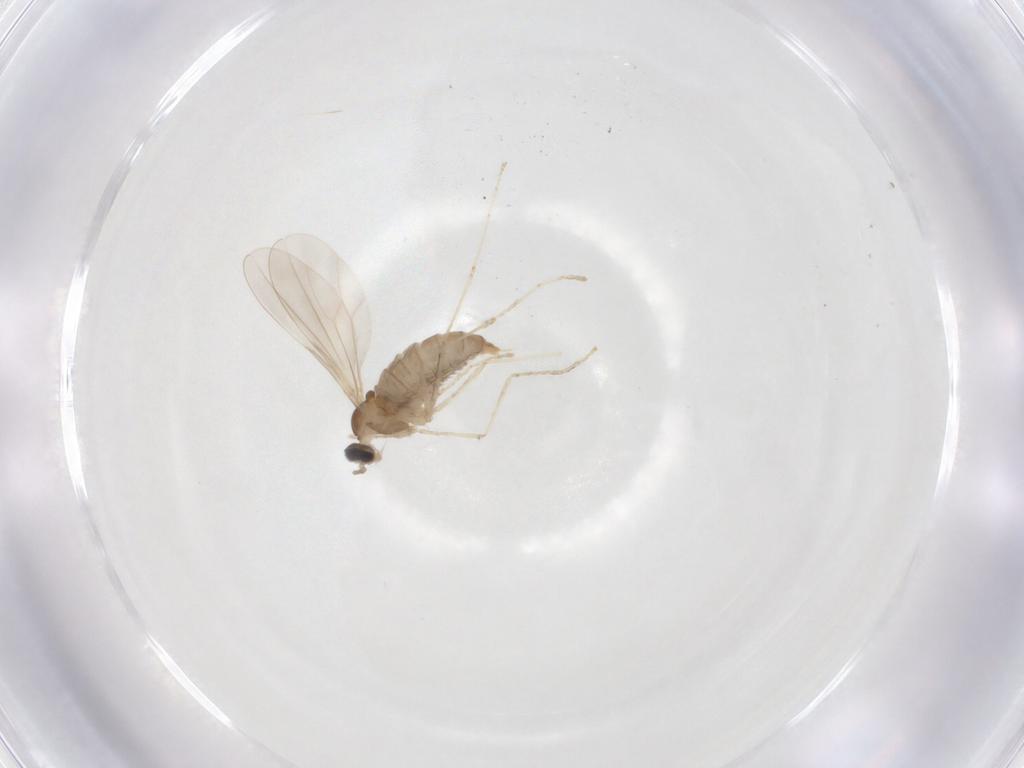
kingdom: Animalia
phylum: Arthropoda
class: Insecta
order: Diptera
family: Cecidomyiidae
